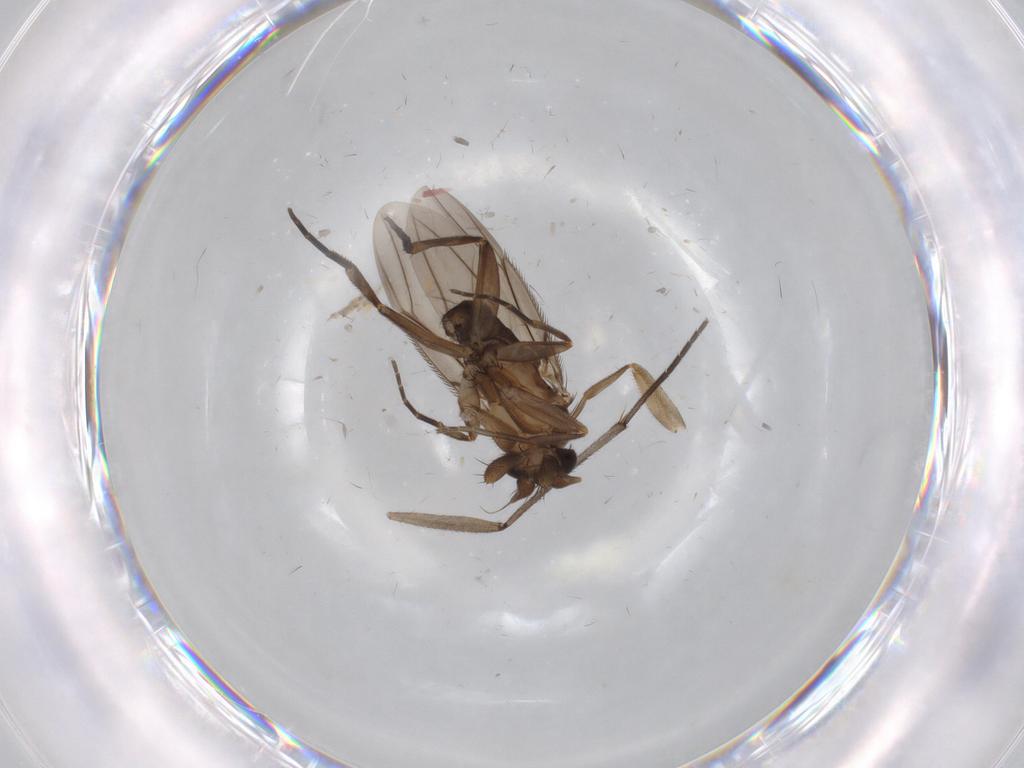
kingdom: Animalia
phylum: Arthropoda
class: Insecta
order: Diptera
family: Phoridae
